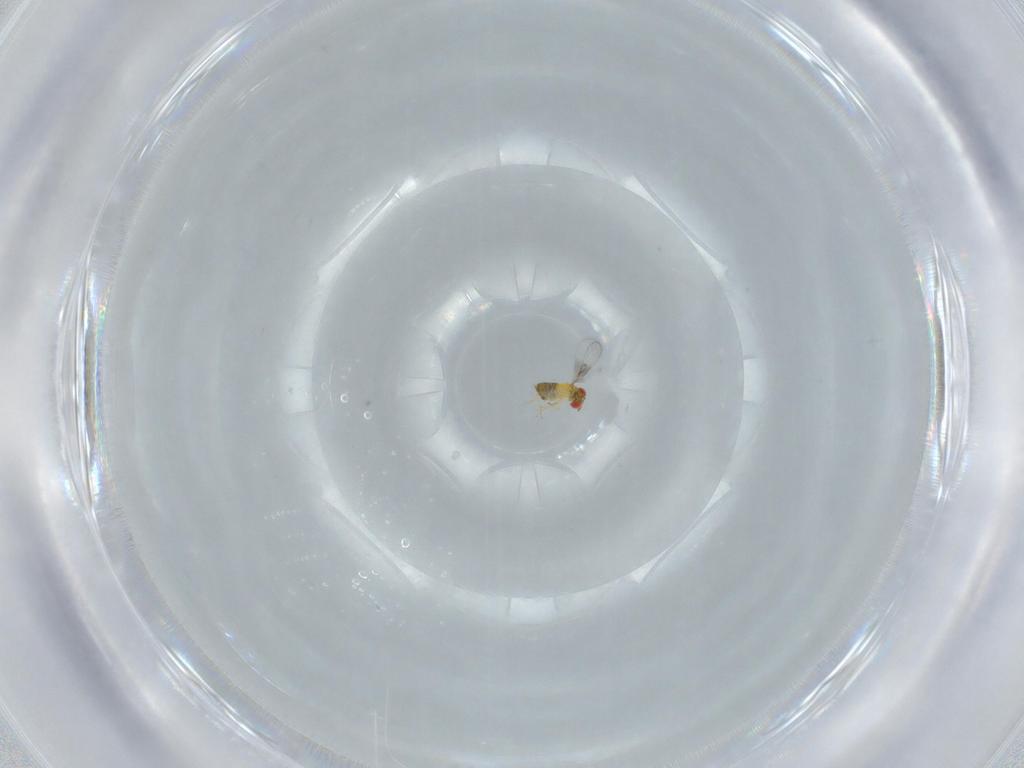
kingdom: Animalia
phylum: Arthropoda
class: Insecta
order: Hymenoptera
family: Trichogrammatidae
